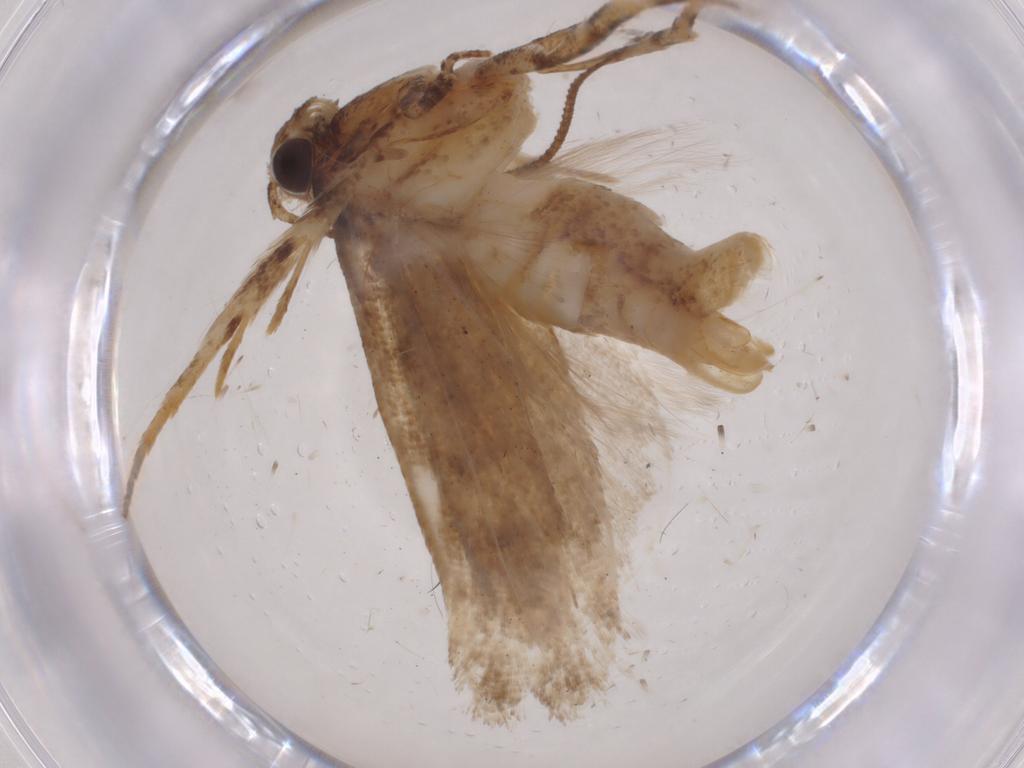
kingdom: Animalia
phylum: Arthropoda
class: Insecta
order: Lepidoptera
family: Gelechiidae
